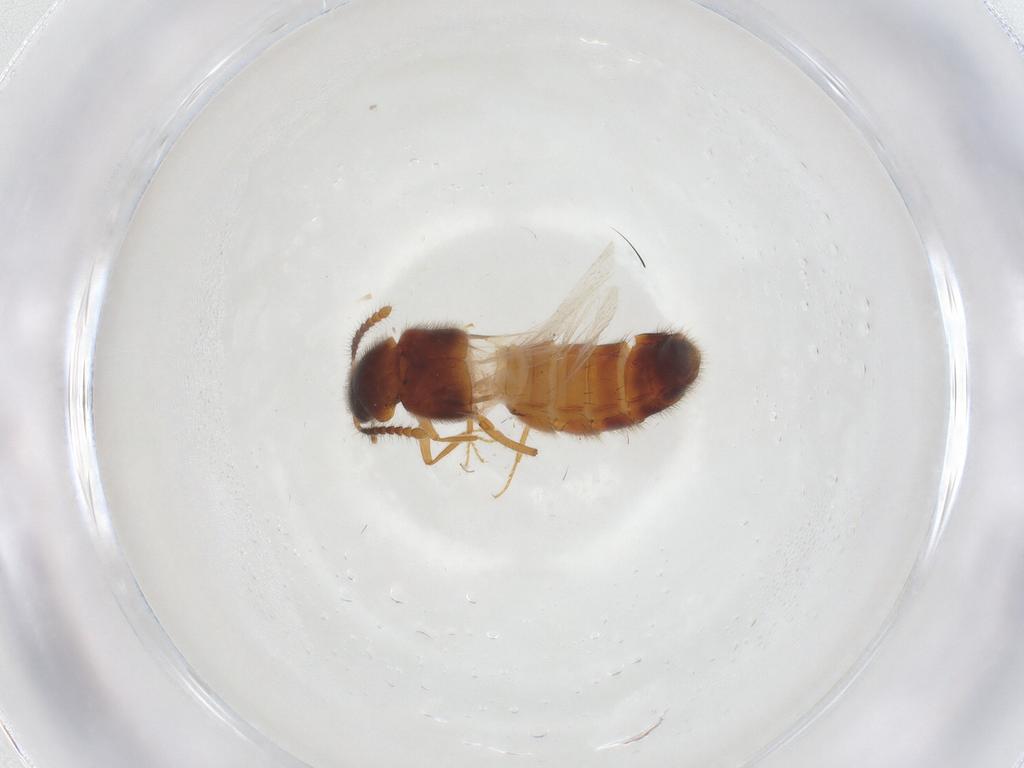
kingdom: Animalia
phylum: Arthropoda
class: Insecta
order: Coleoptera
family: Staphylinidae
